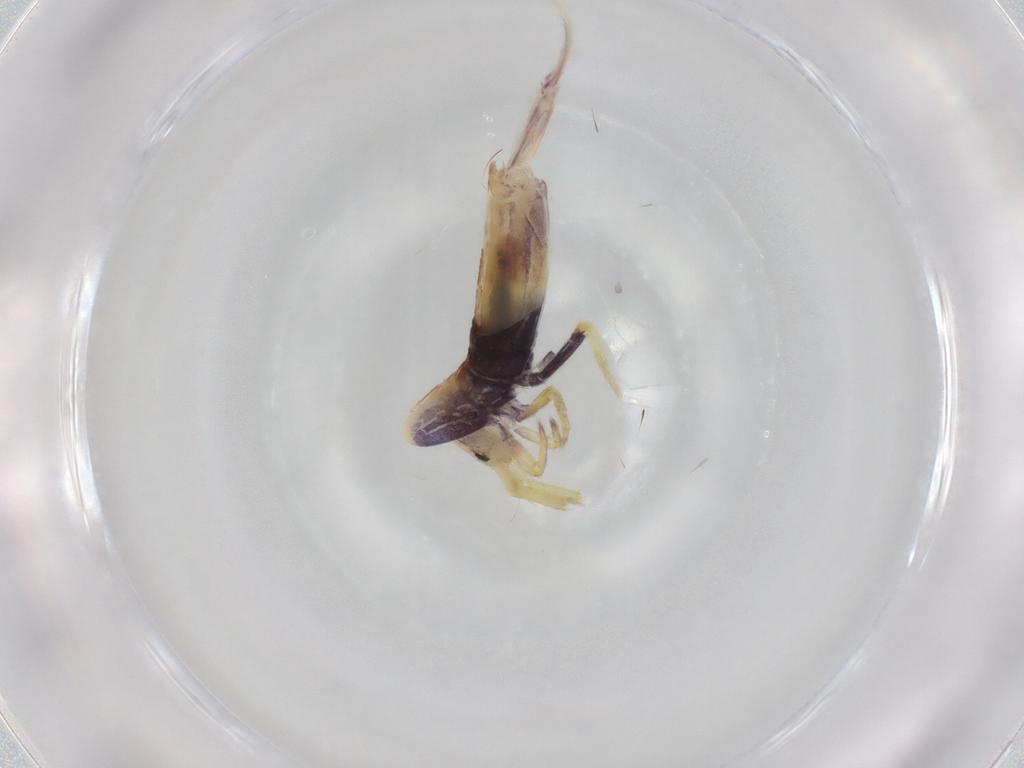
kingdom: Animalia
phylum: Arthropoda
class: Collembola
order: Entomobryomorpha
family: Entomobryidae
